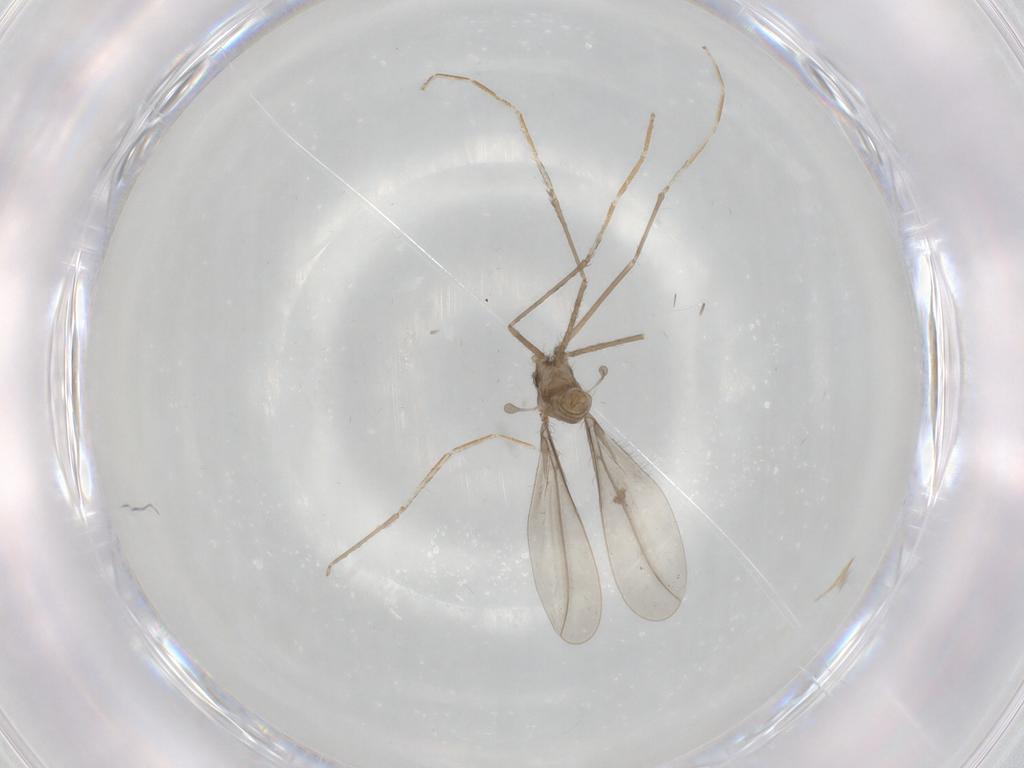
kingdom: Animalia
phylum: Arthropoda
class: Insecta
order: Diptera
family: Cecidomyiidae
